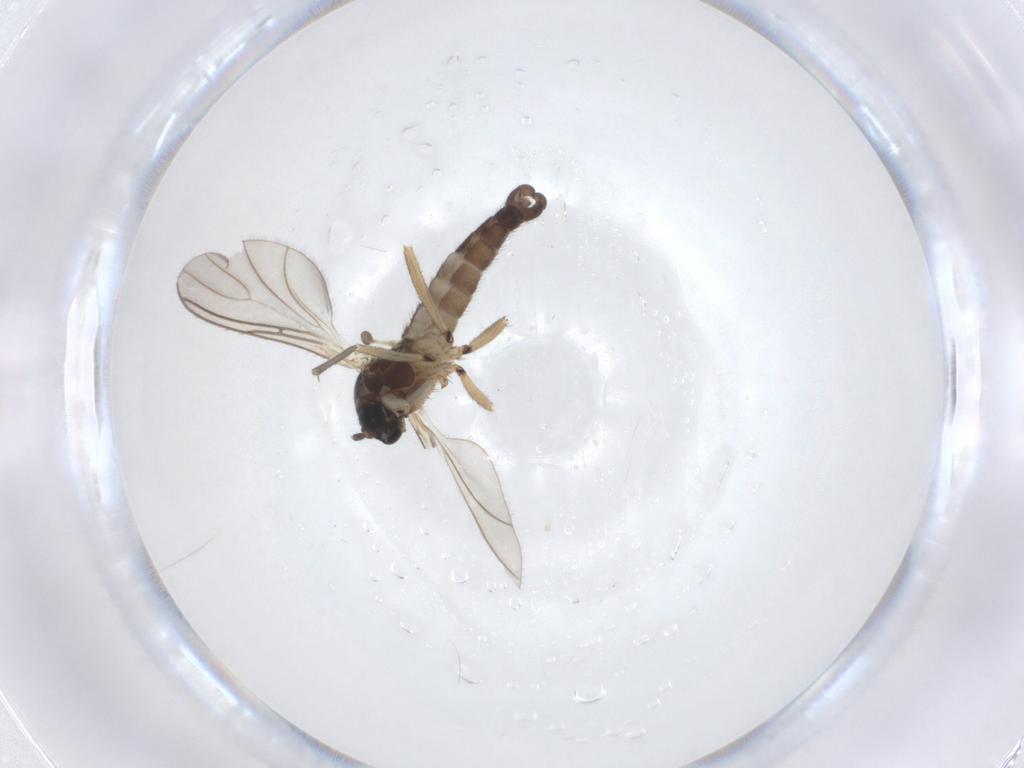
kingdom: Animalia
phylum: Arthropoda
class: Insecta
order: Diptera
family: Sciaridae
